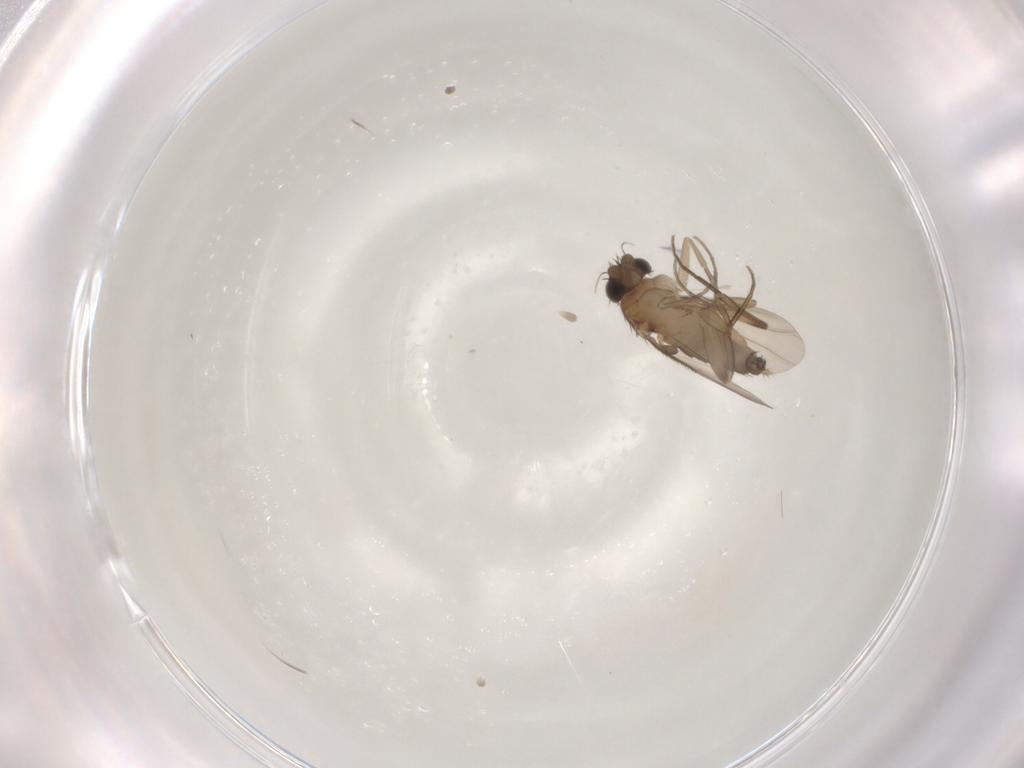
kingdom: Animalia
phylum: Arthropoda
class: Insecta
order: Diptera
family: Phoridae
